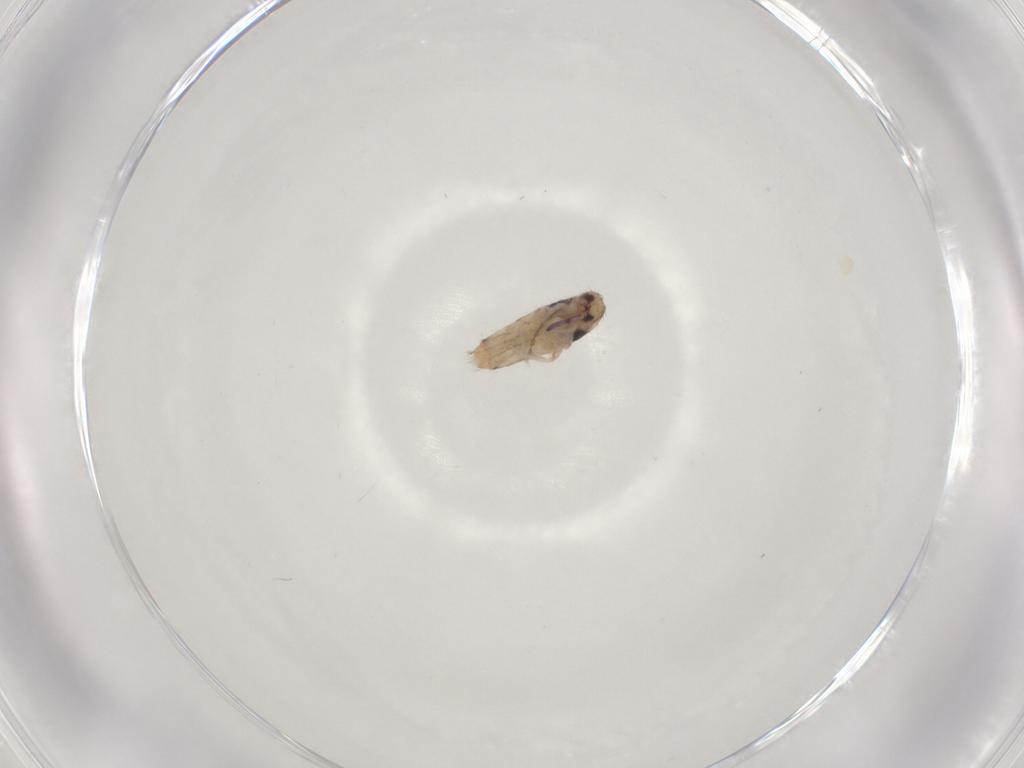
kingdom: Animalia
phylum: Arthropoda
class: Collembola
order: Entomobryomorpha
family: Entomobryidae
